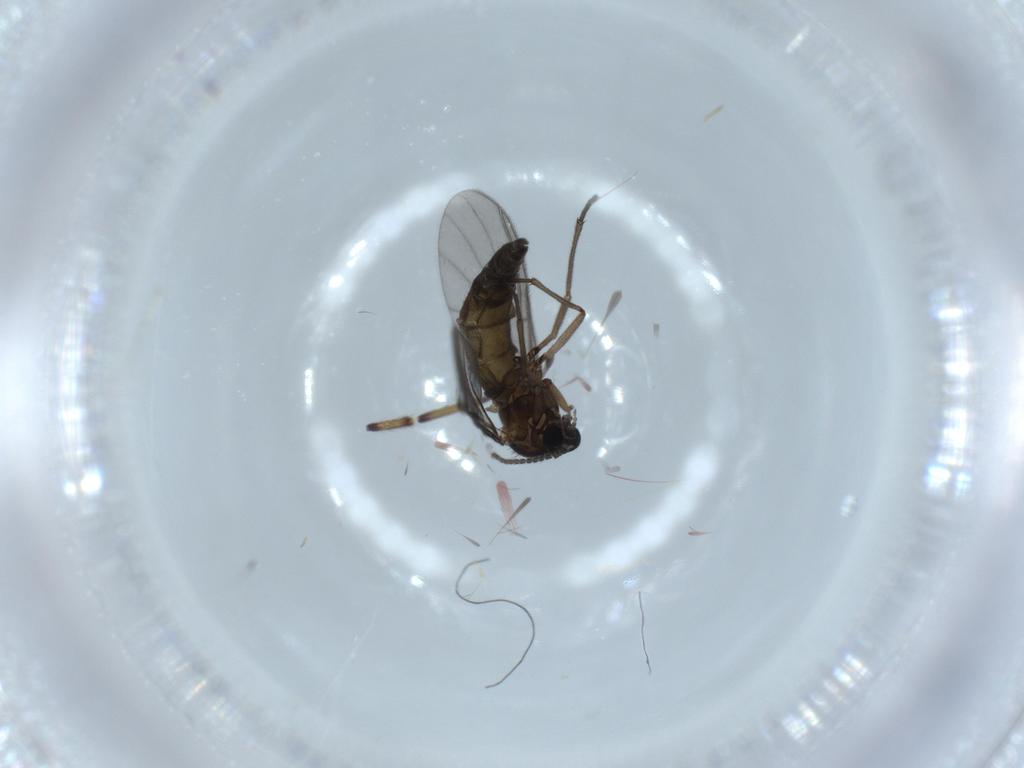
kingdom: Animalia
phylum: Arthropoda
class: Insecta
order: Diptera
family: Sciaridae
